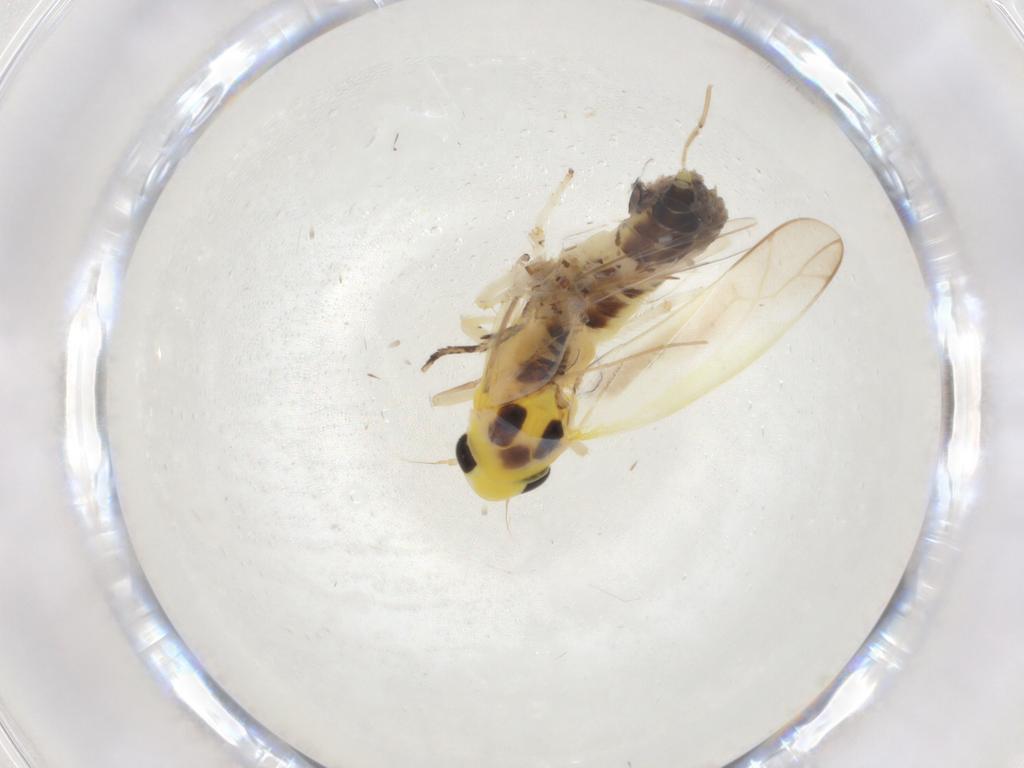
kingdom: Animalia
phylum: Arthropoda
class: Insecta
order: Hemiptera
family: Cicadellidae
